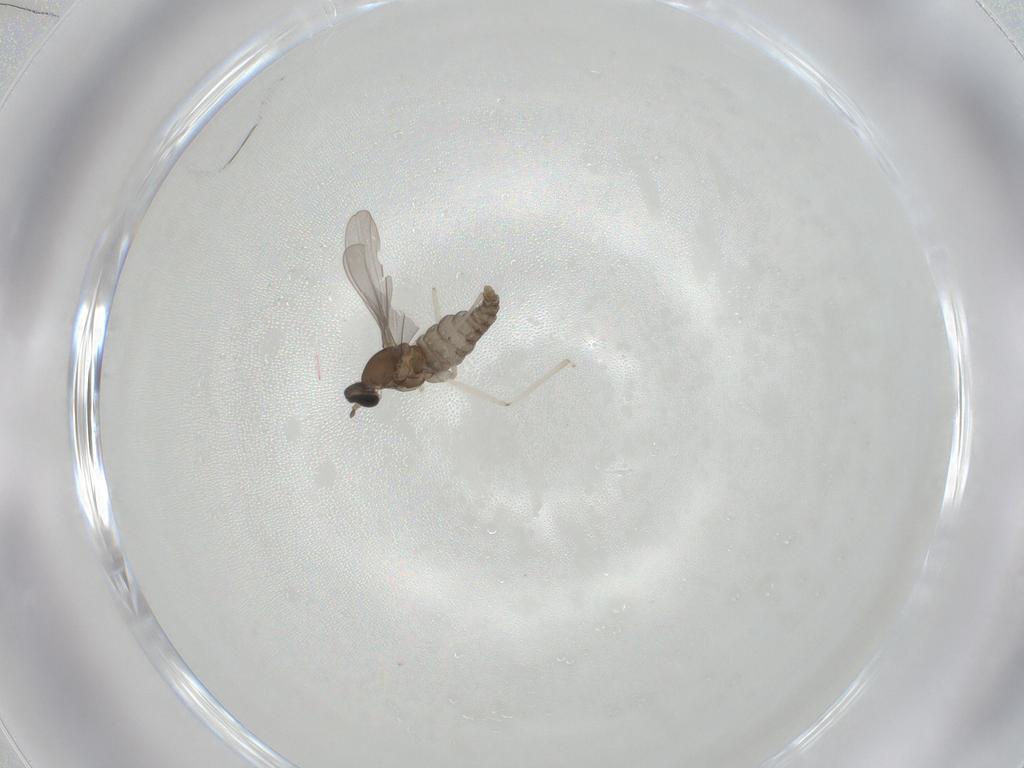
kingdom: Animalia
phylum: Arthropoda
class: Insecta
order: Diptera
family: Cecidomyiidae
